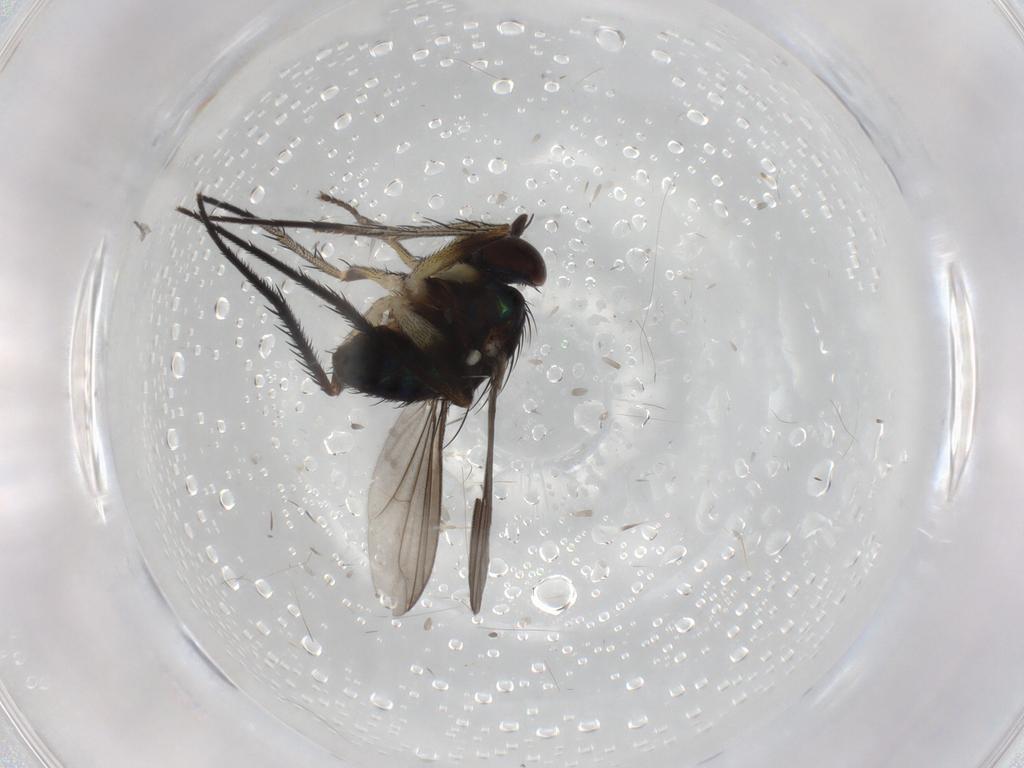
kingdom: Animalia
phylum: Arthropoda
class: Insecta
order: Diptera
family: Dolichopodidae
